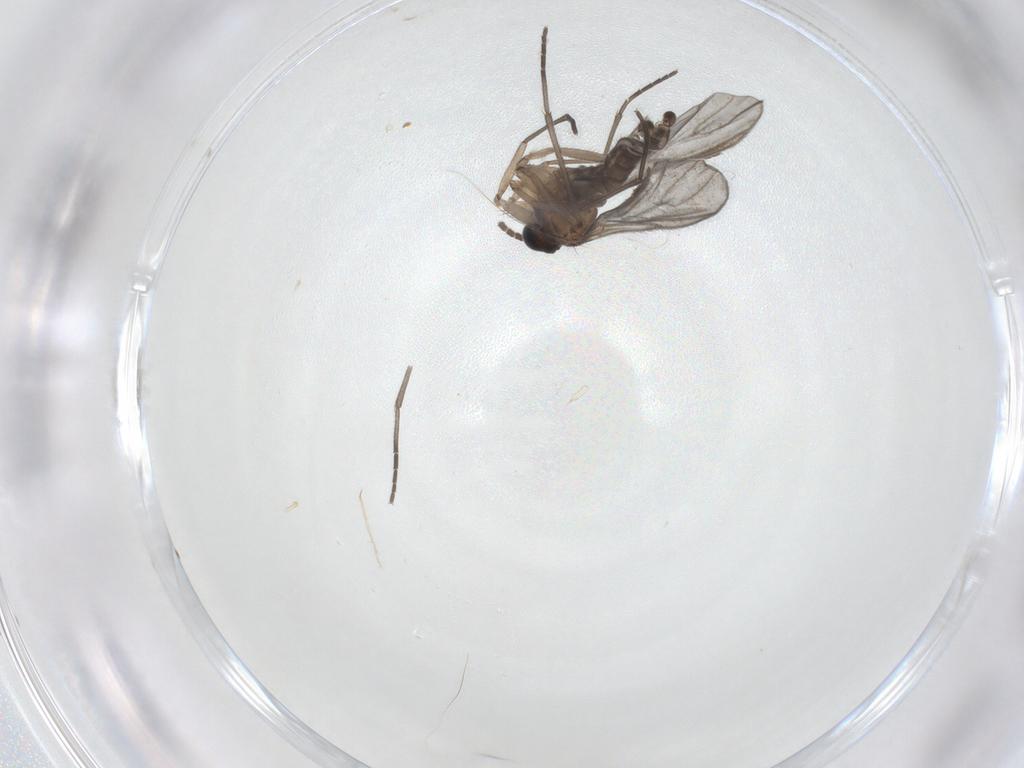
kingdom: Animalia
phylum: Arthropoda
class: Insecta
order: Diptera
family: Sciaridae
